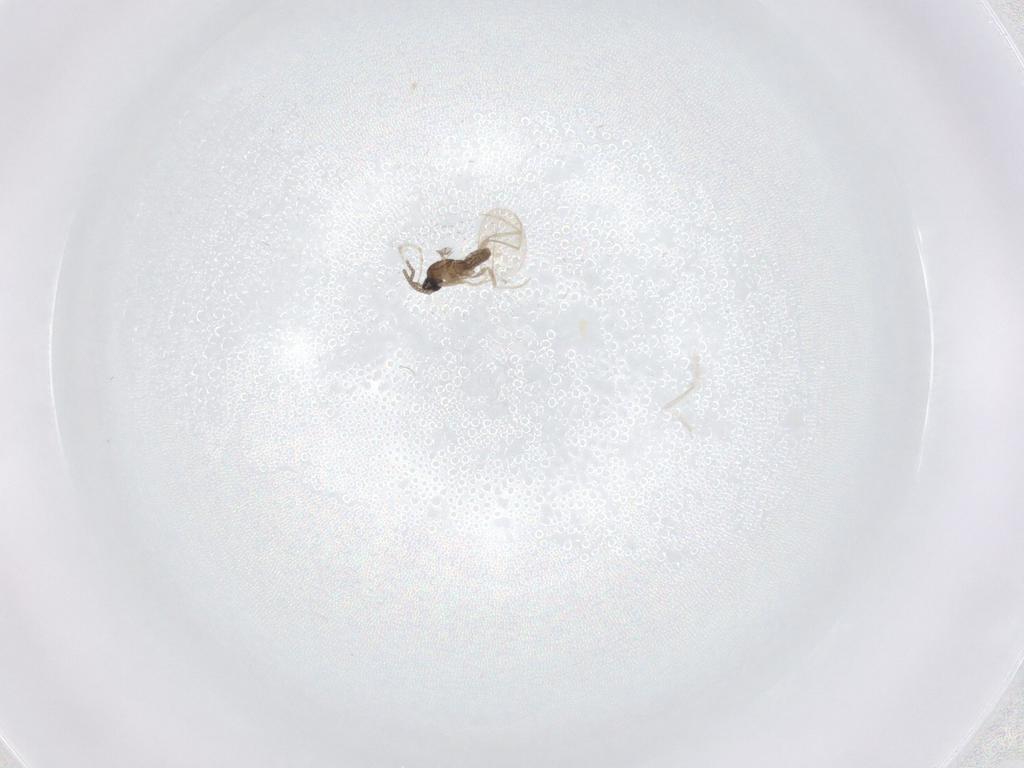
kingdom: Animalia
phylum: Arthropoda
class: Insecta
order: Diptera
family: Cecidomyiidae
